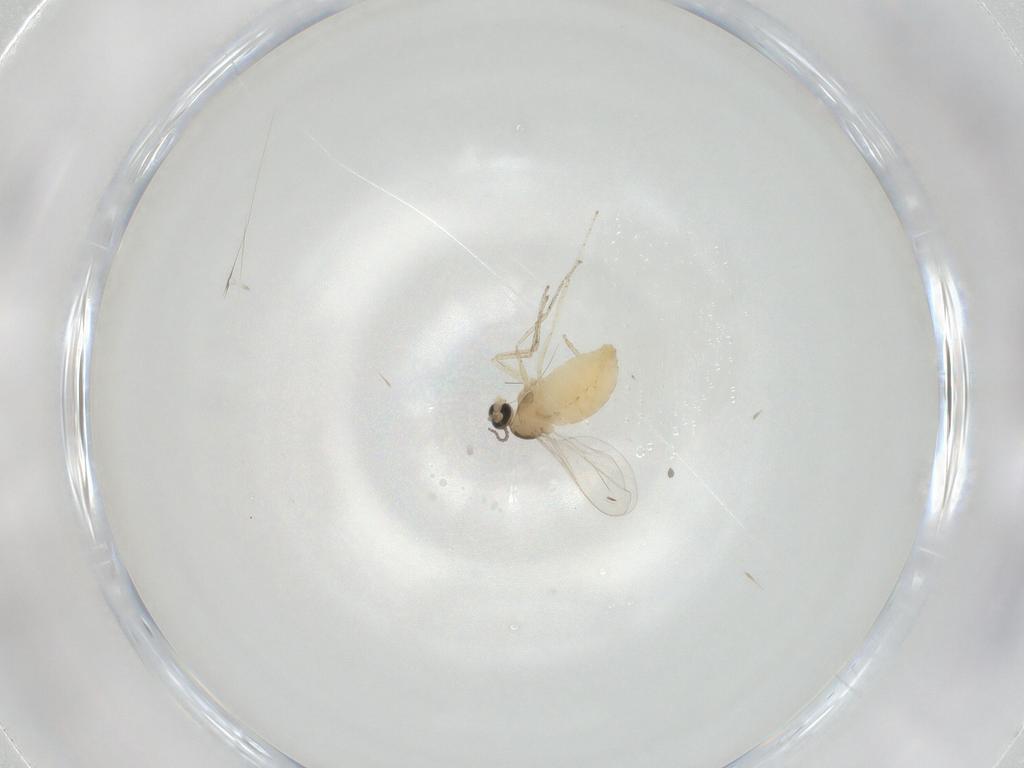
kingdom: Animalia
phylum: Arthropoda
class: Insecta
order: Diptera
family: Cecidomyiidae
